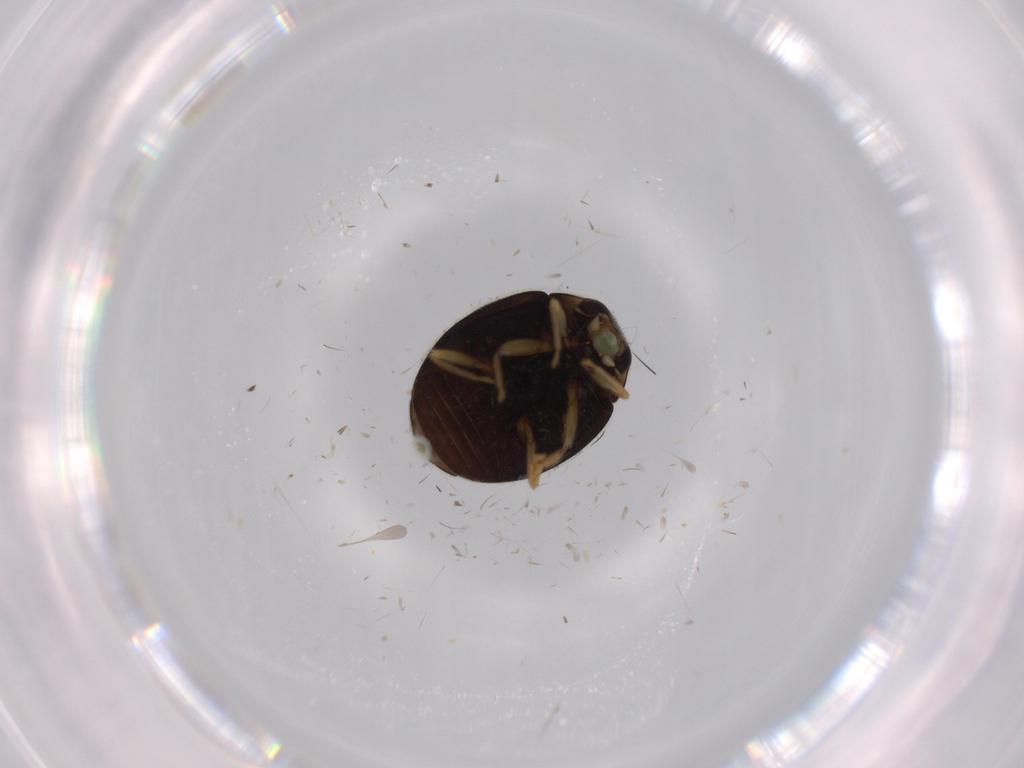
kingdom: Animalia
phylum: Arthropoda
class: Insecta
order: Coleoptera
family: Coccinellidae
